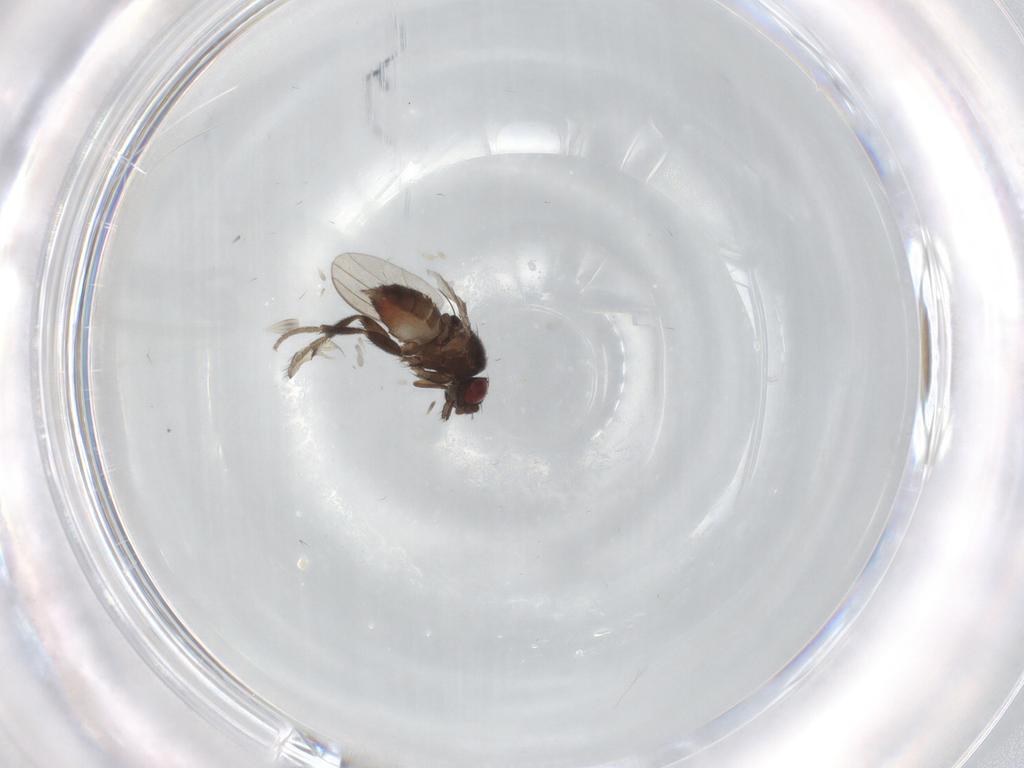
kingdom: Animalia
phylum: Arthropoda
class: Insecta
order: Diptera
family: Milichiidae
